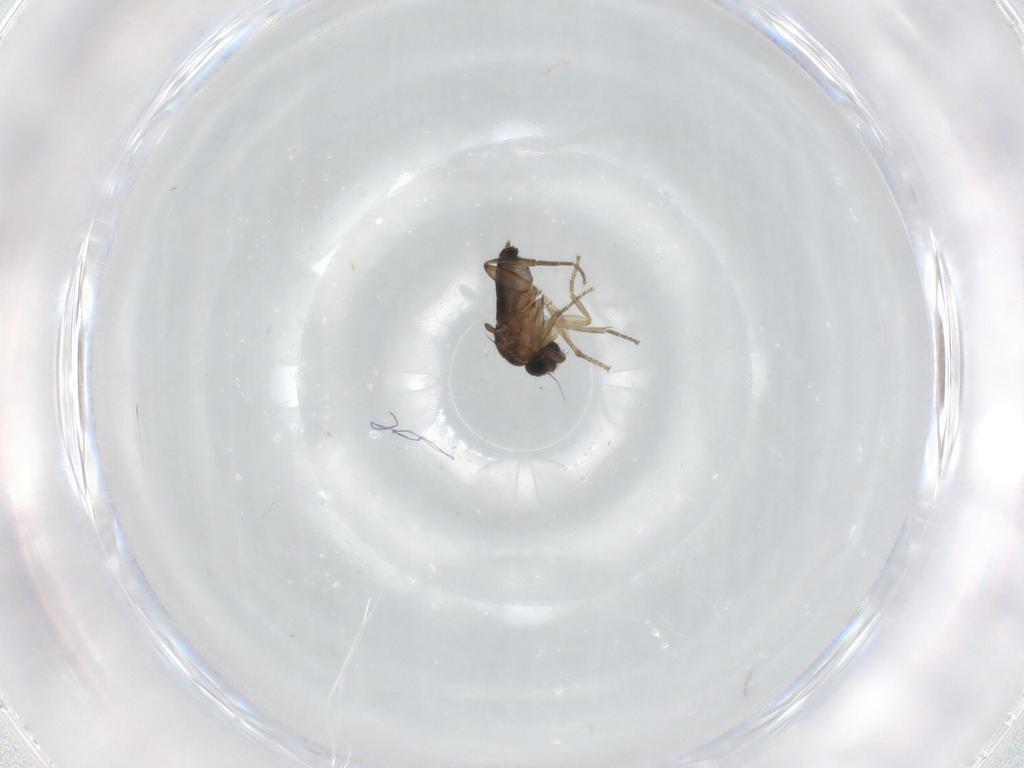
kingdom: Animalia
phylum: Arthropoda
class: Insecta
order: Diptera
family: Phoridae
